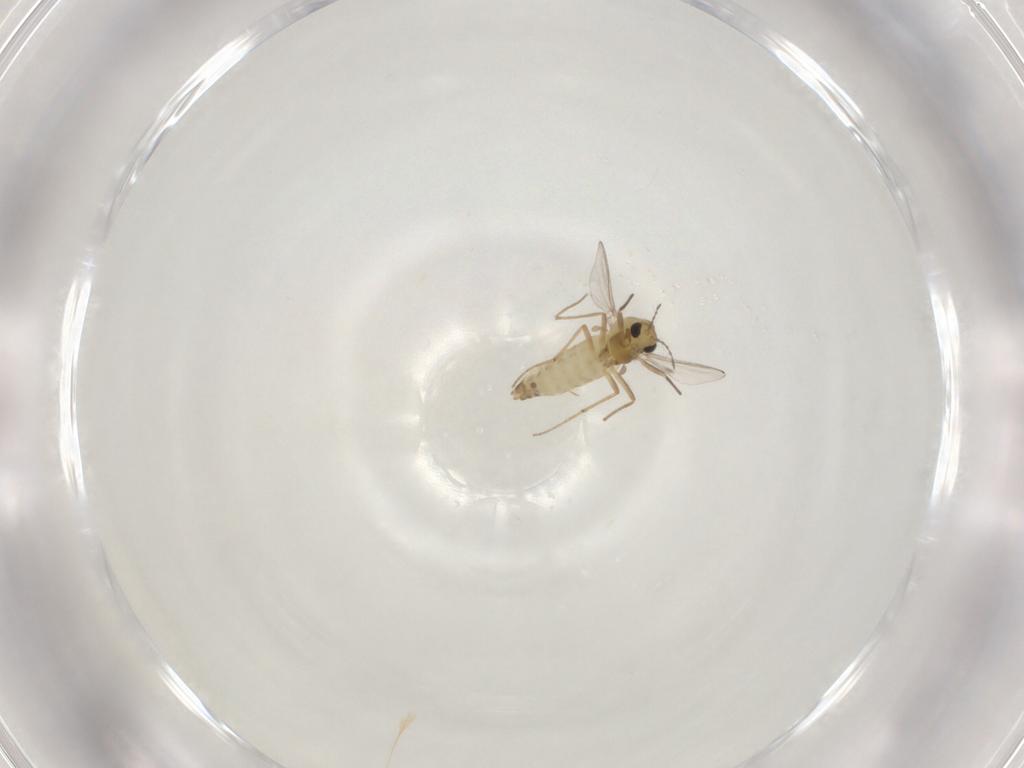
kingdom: Animalia
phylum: Arthropoda
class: Insecta
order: Diptera
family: Chironomidae
